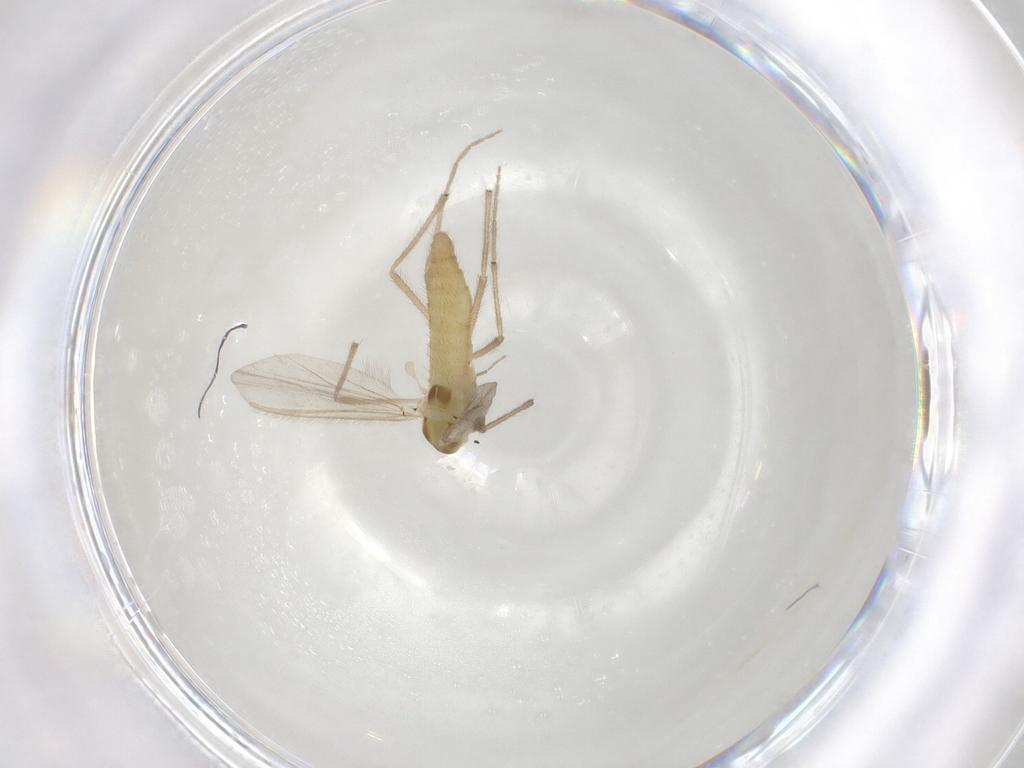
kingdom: Animalia
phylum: Arthropoda
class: Insecta
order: Diptera
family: Chironomidae
